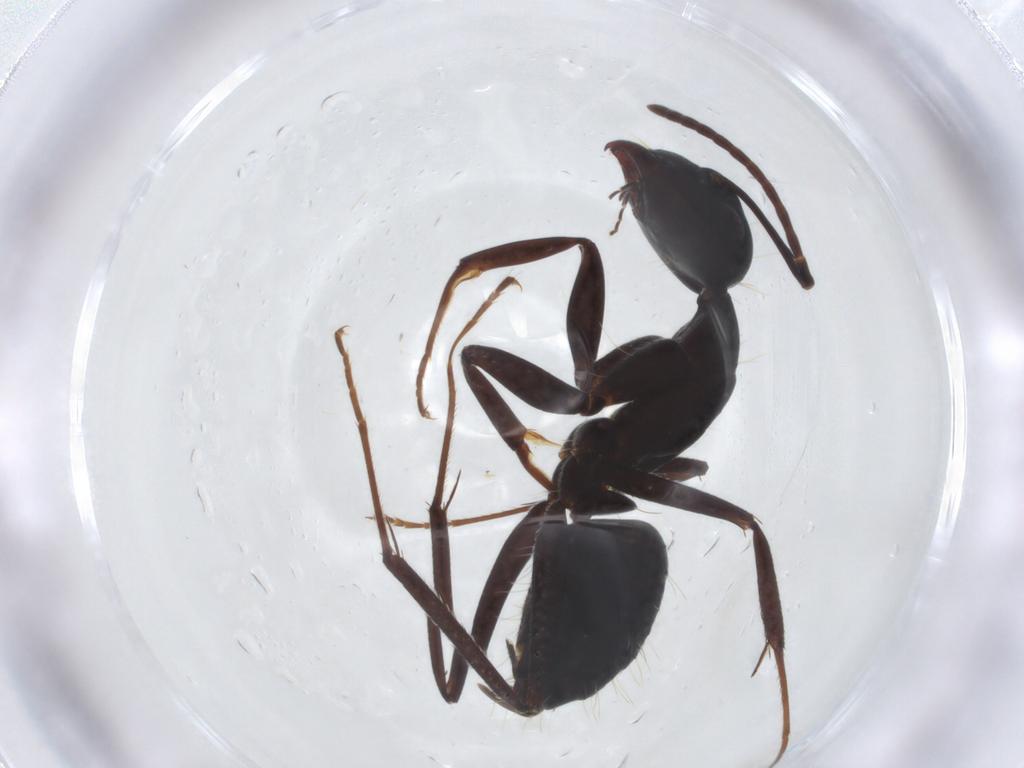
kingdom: Animalia
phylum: Arthropoda
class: Insecta
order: Hymenoptera
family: Formicidae
